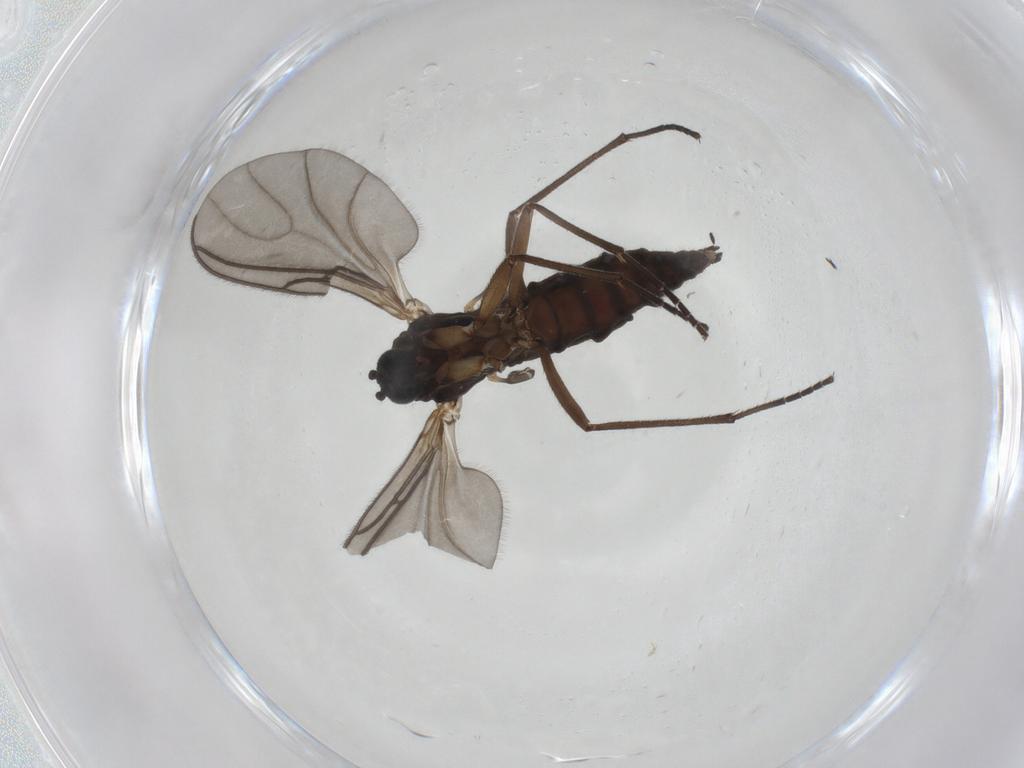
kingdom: Animalia
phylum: Arthropoda
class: Insecta
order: Diptera
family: Sciaridae
